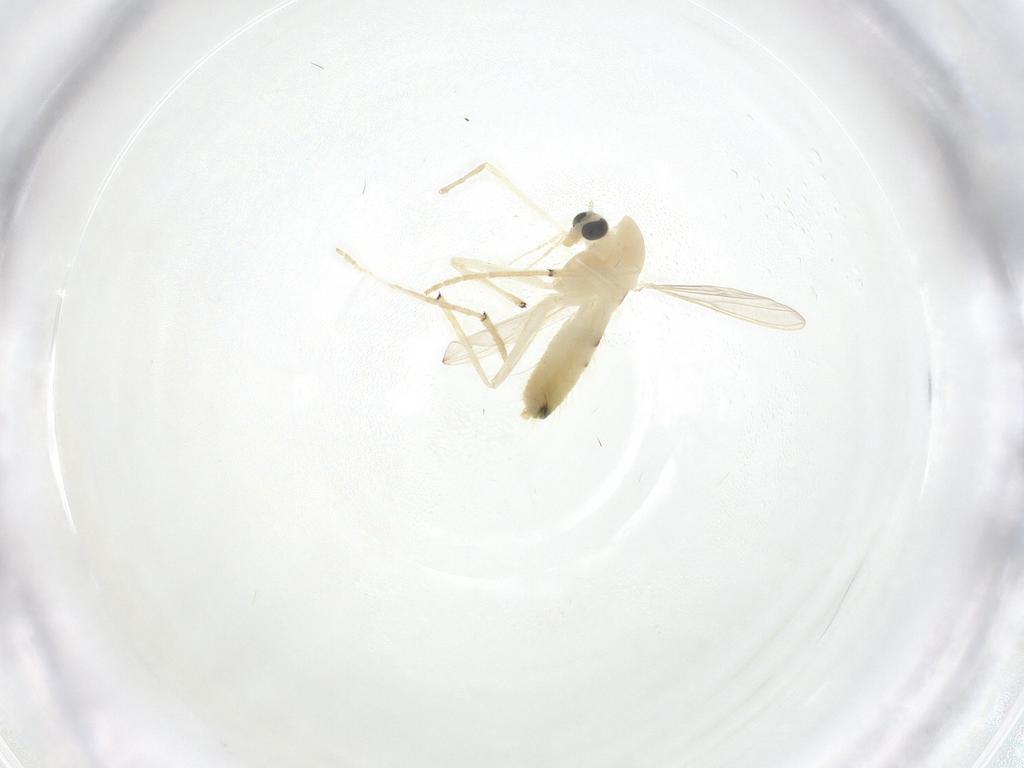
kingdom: Animalia
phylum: Arthropoda
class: Insecta
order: Diptera
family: Chironomidae
